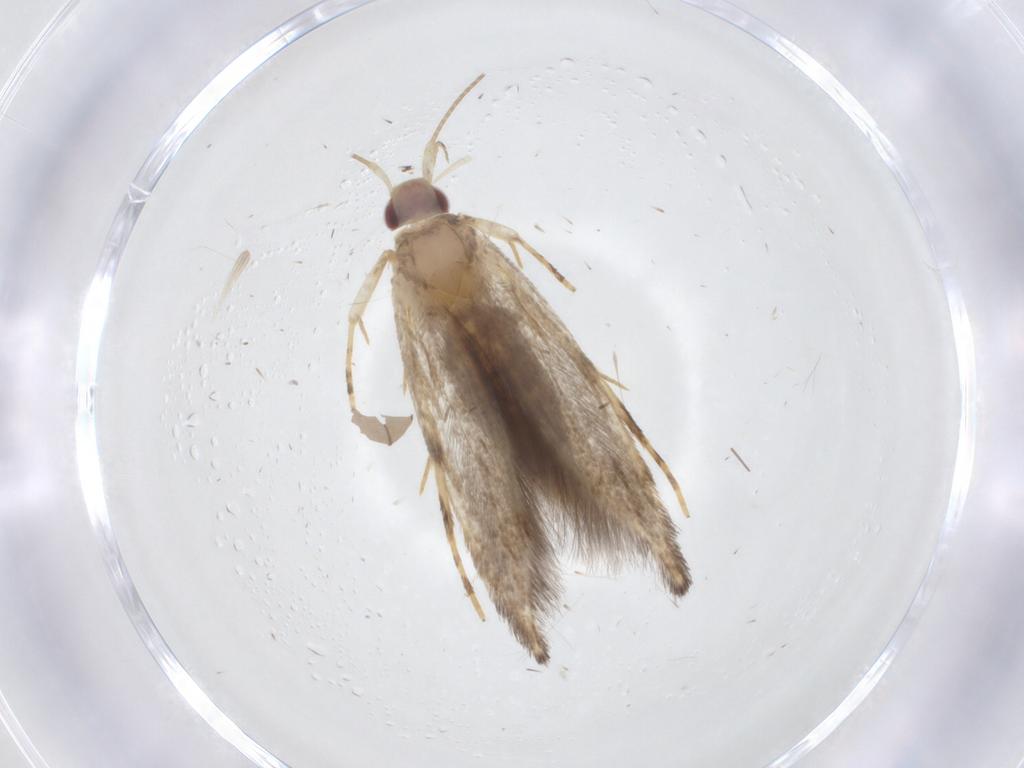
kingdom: Animalia
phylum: Arthropoda
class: Insecta
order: Lepidoptera
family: Cosmopterigidae
